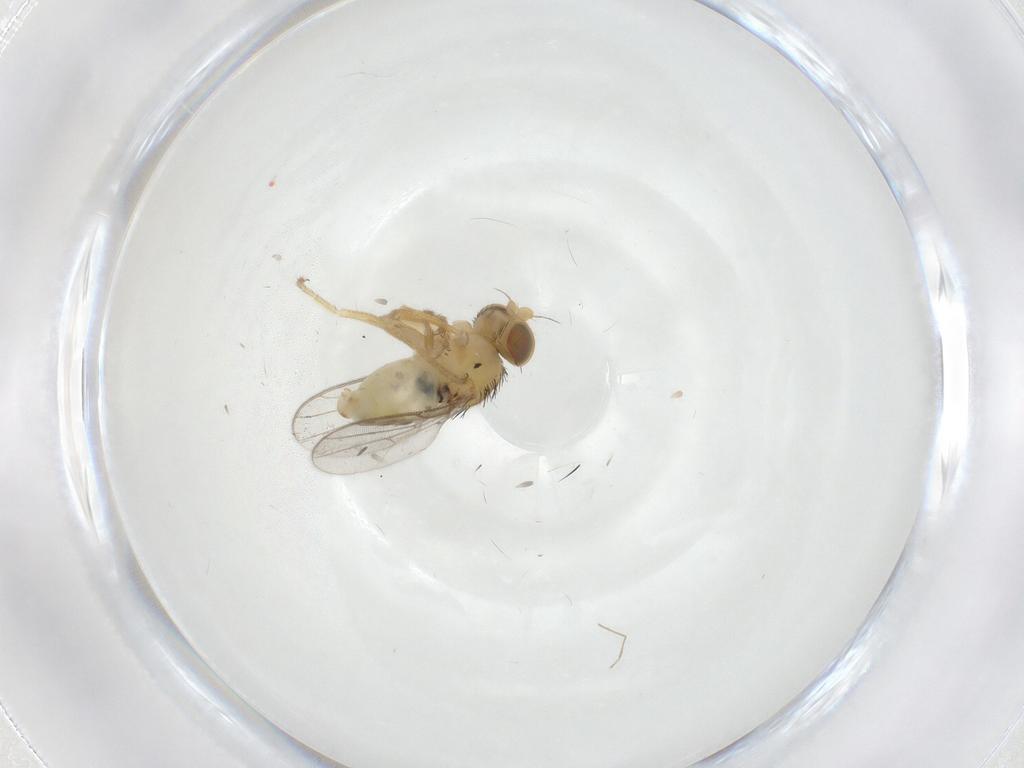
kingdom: Animalia
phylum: Arthropoda
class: Insecta
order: Diptera
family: Chloropidae
